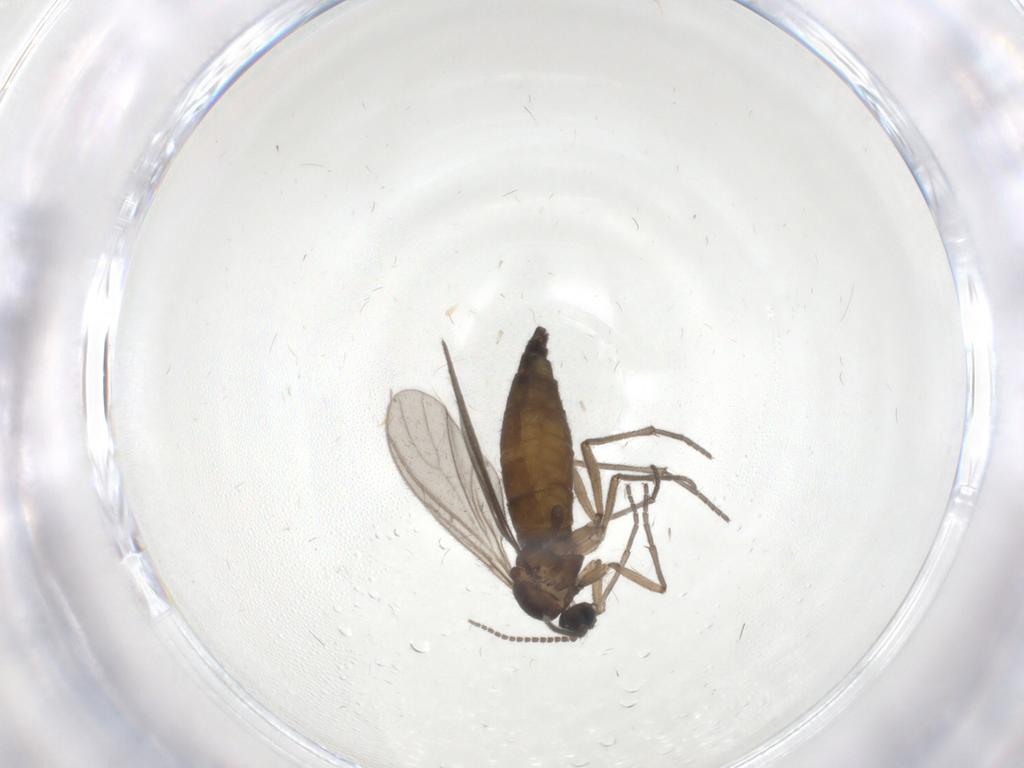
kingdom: Animalia
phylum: Arthropoda
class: Insecta
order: Diptera
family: Sciaridae
